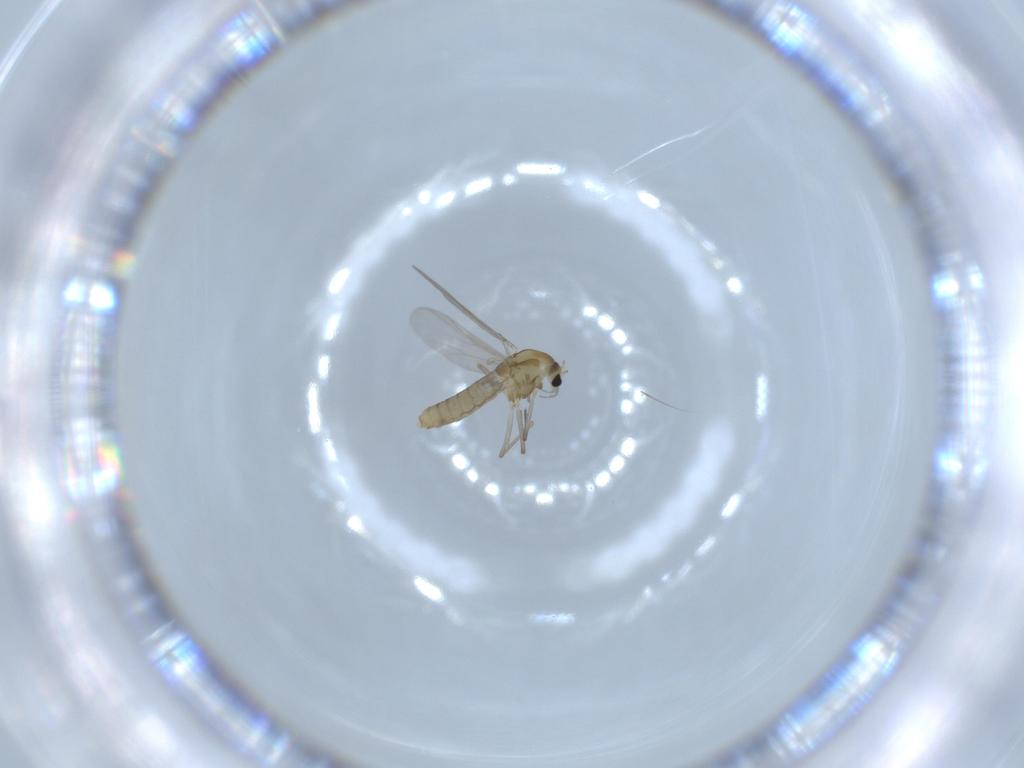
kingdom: Animalia
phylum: Arthropoda
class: Insecta
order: Diptera
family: Chironomidae
